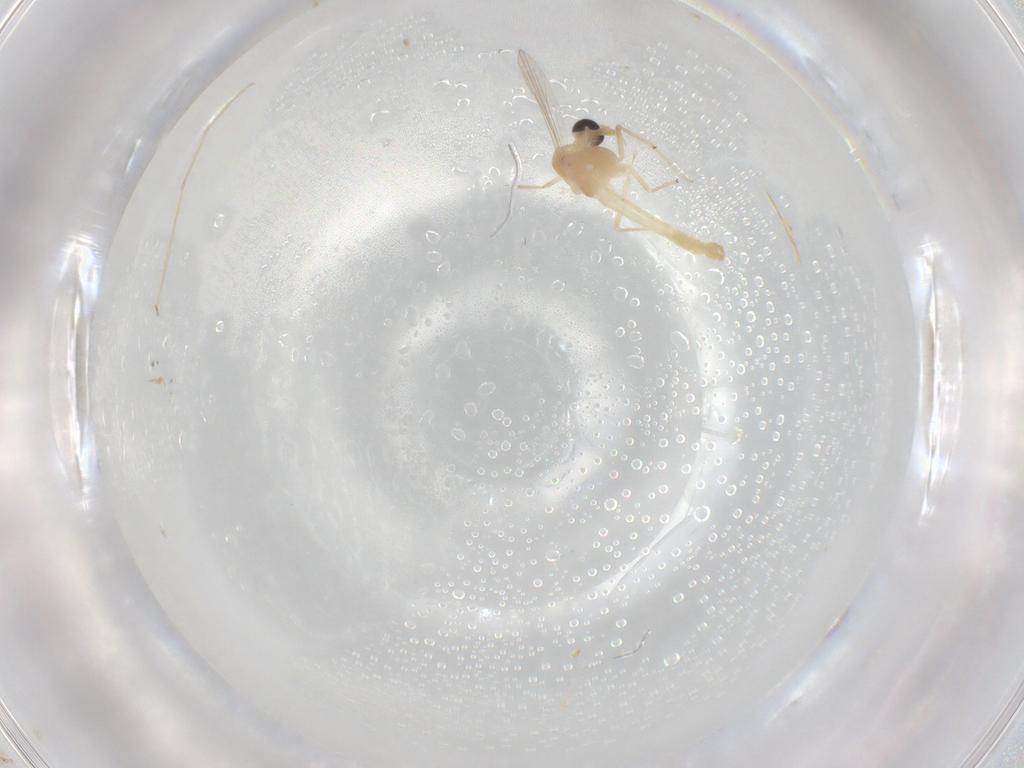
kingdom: Animalia
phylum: Arthropoda
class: Insecta
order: Diptera
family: Chironomidae
